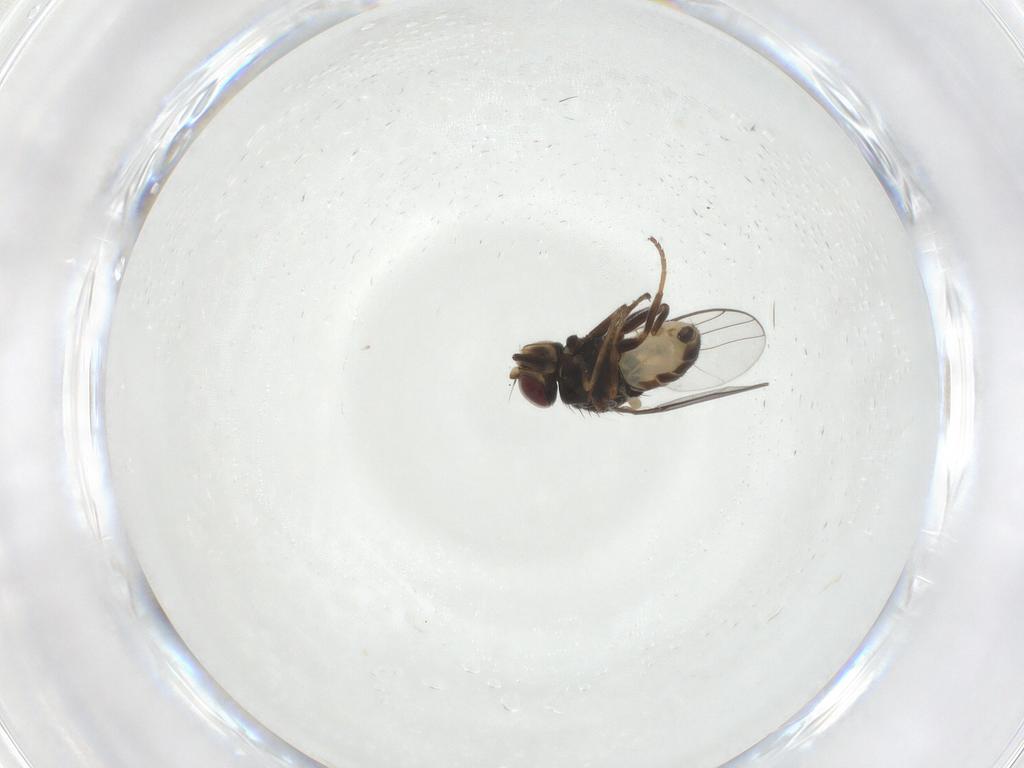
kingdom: Animalia
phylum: Arthropoda
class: Insecta
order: Diptera
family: Chloropidae
